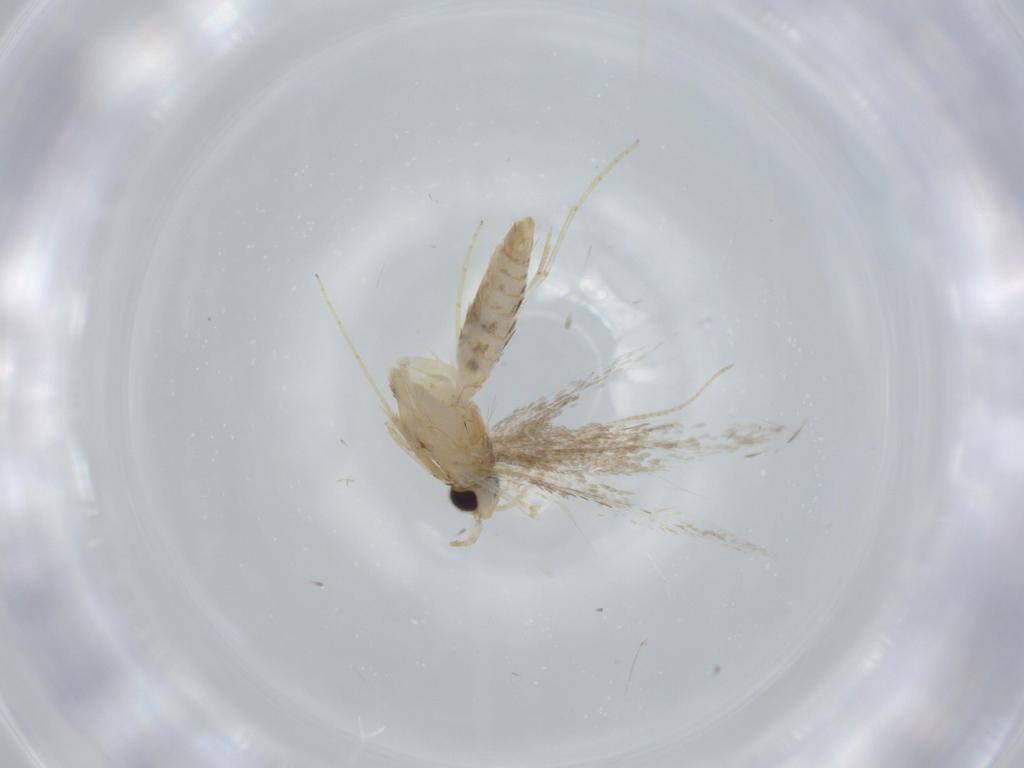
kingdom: Animalia
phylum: Arthropoda
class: Insecta
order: Lepidoptera
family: Tineidae
